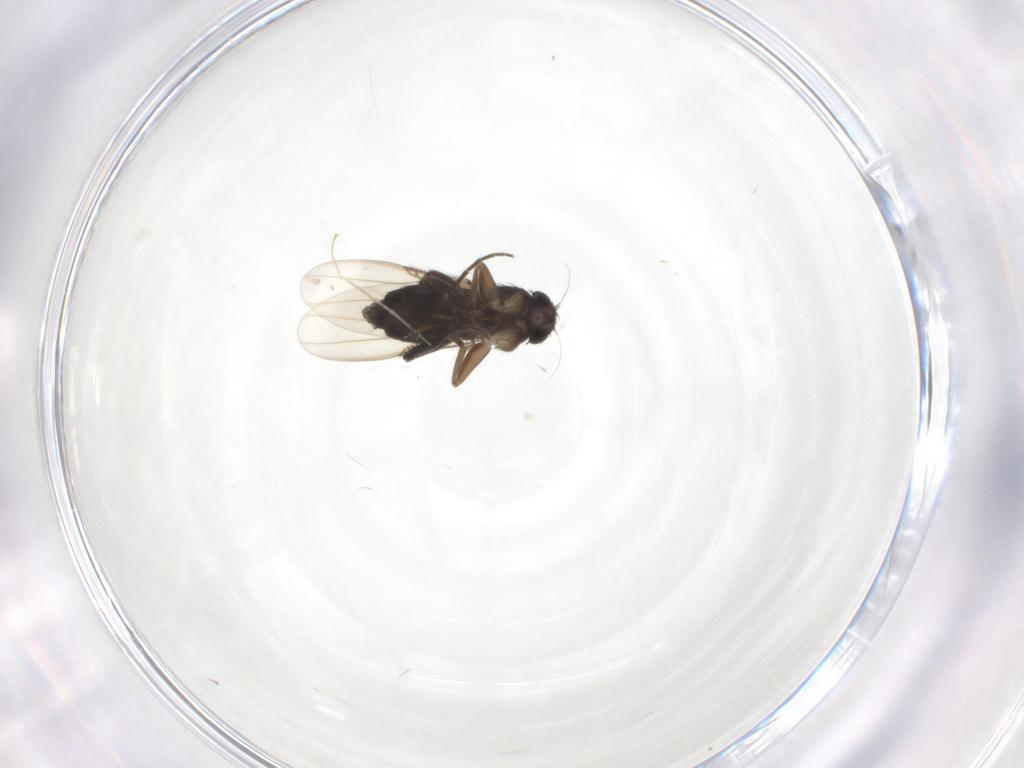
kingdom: Animalia
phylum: Arthropoda
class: Insecta
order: Diptera
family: Phoridae
